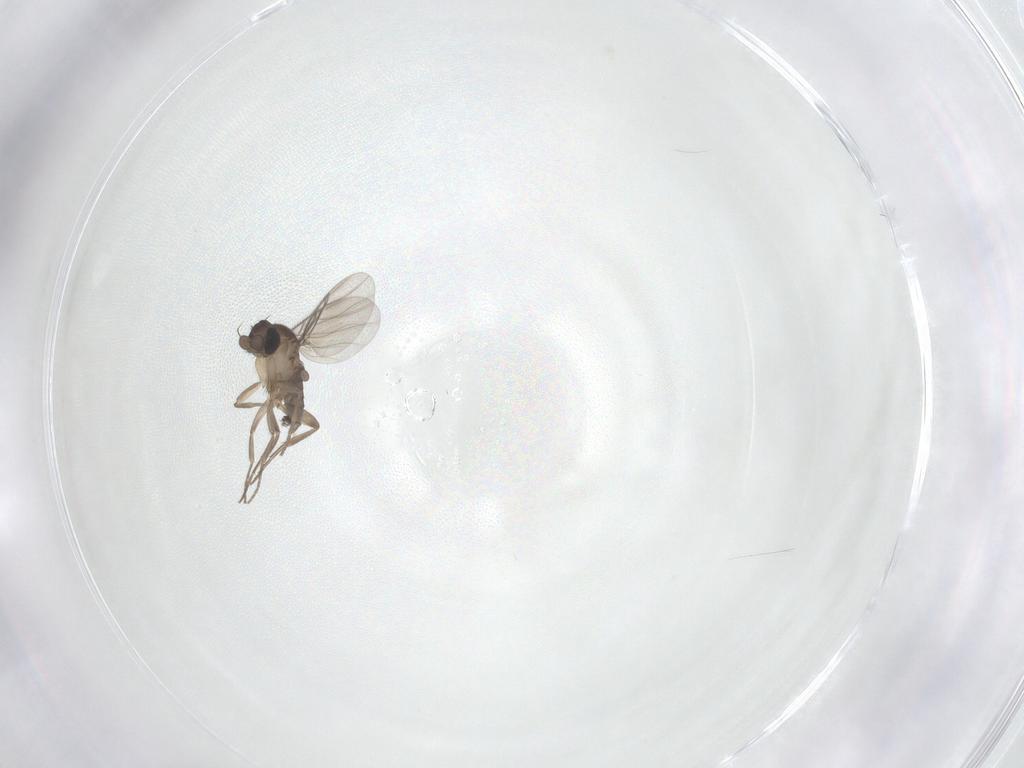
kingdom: Animalia
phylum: Arthropoda
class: Insecta
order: Diptera
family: Phoridae
